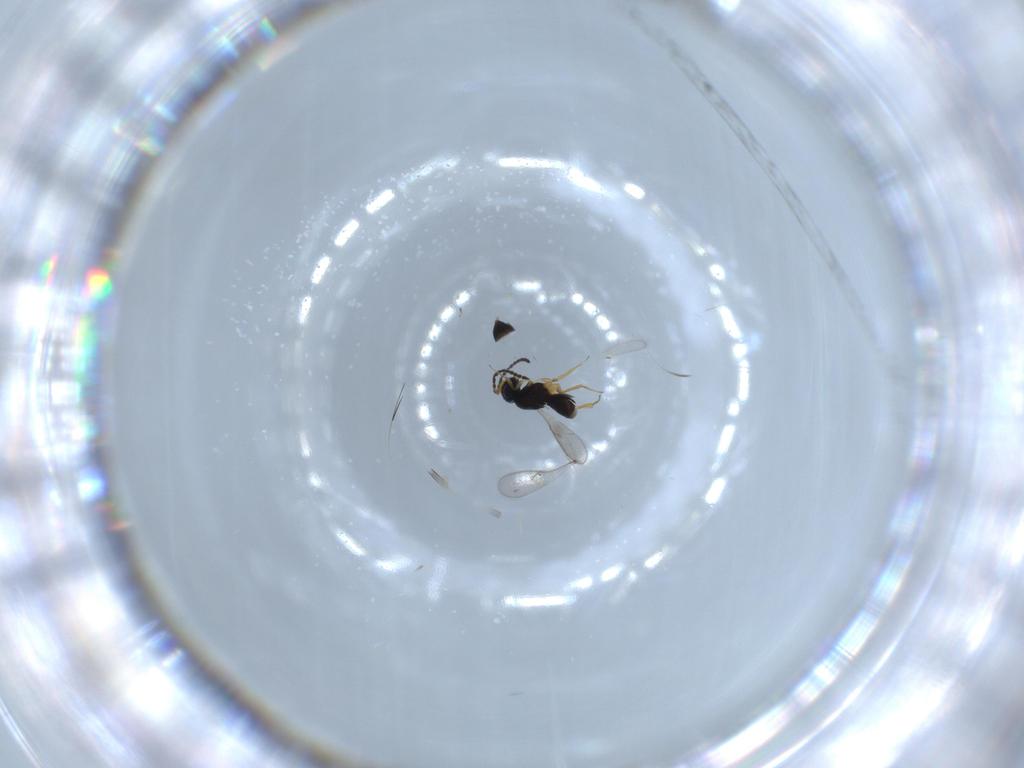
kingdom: Animalia
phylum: Arthropoda
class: Insecta
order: Hymenoptera
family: Scelionidae
